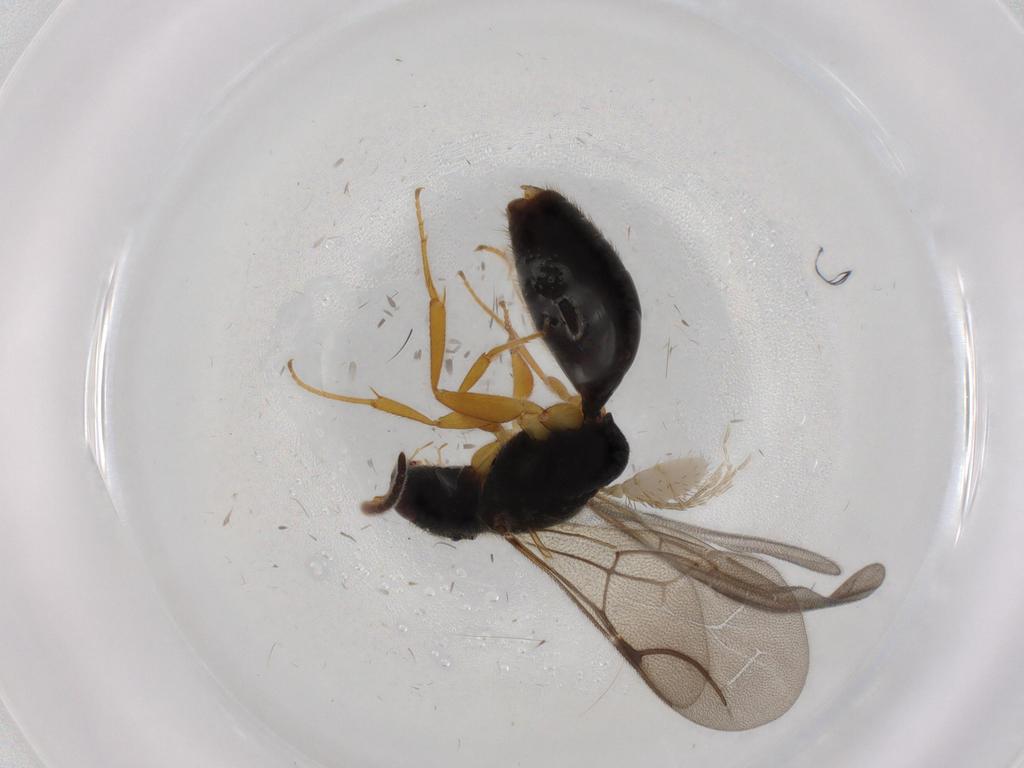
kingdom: Animalia
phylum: Arthropoda
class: Insecta
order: Hymenoptera
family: Bethylidae
